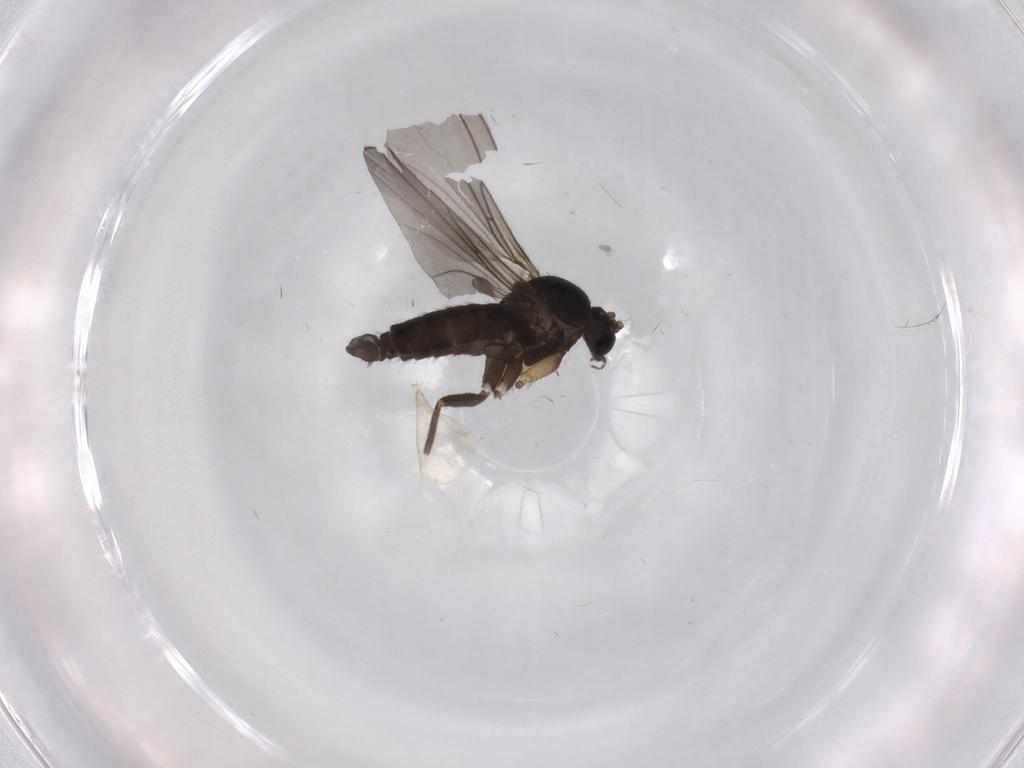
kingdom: Animalia
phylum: Arthropoda
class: Insecta
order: Diptera
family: Sciaridae
